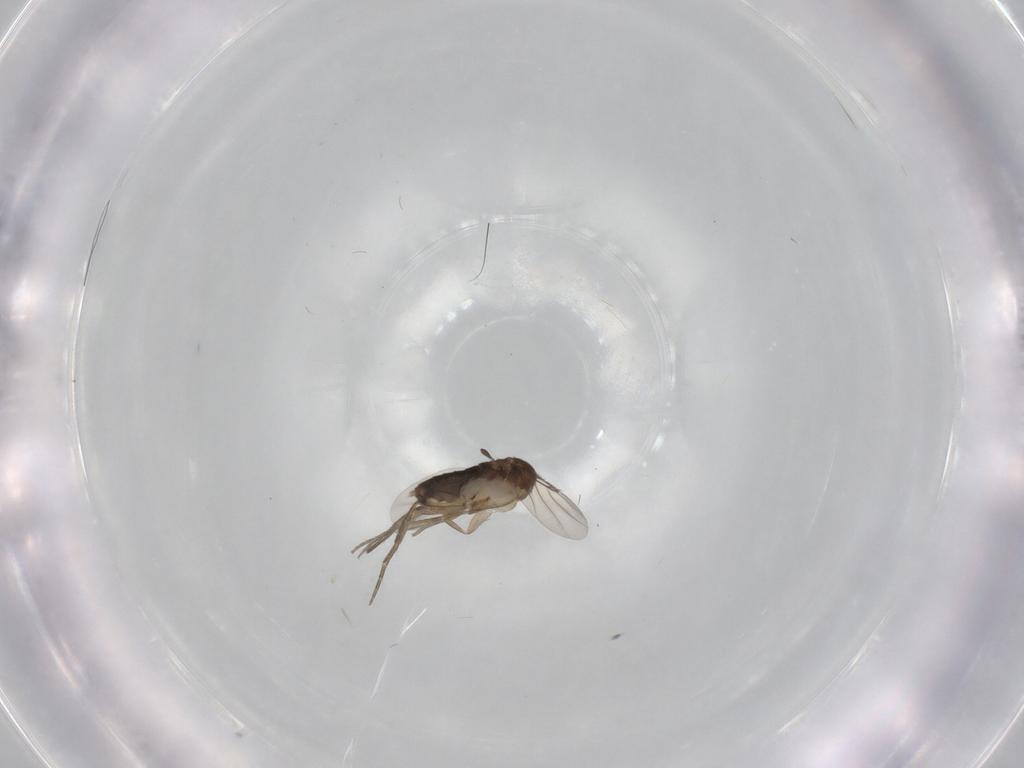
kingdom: Animalia
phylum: Arthropoda
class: Insecta
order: Diptera
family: Phoridae
